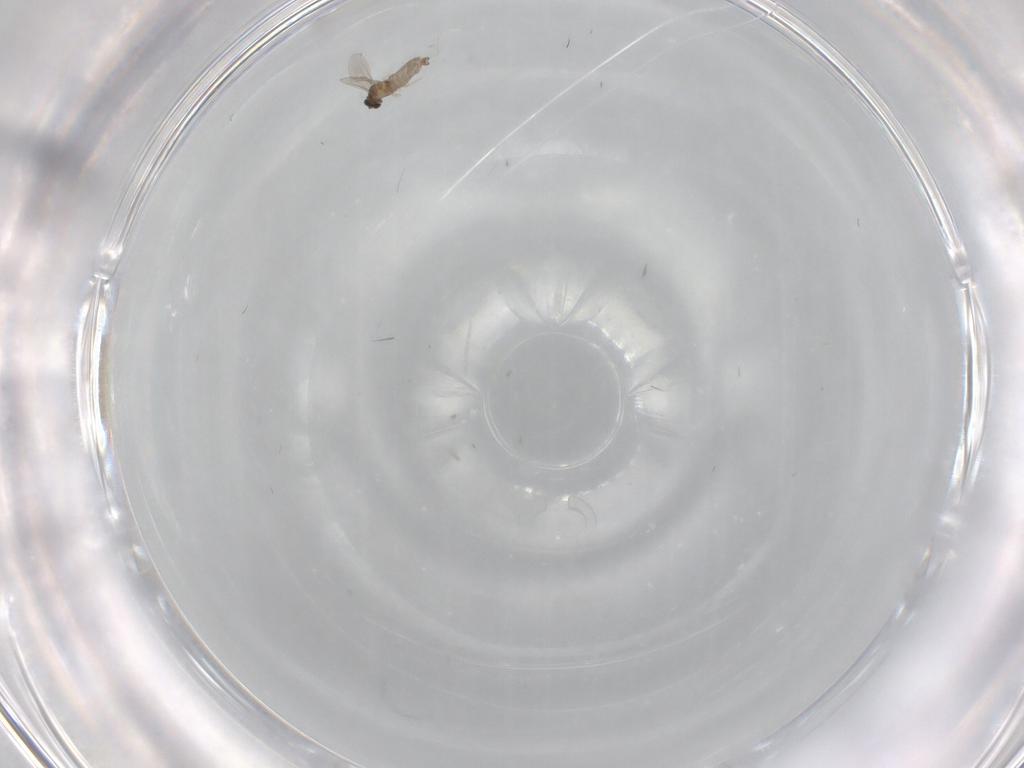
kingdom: Animalia
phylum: Arthropoda
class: Insecta
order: Diptera
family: Cecidomyiidae
